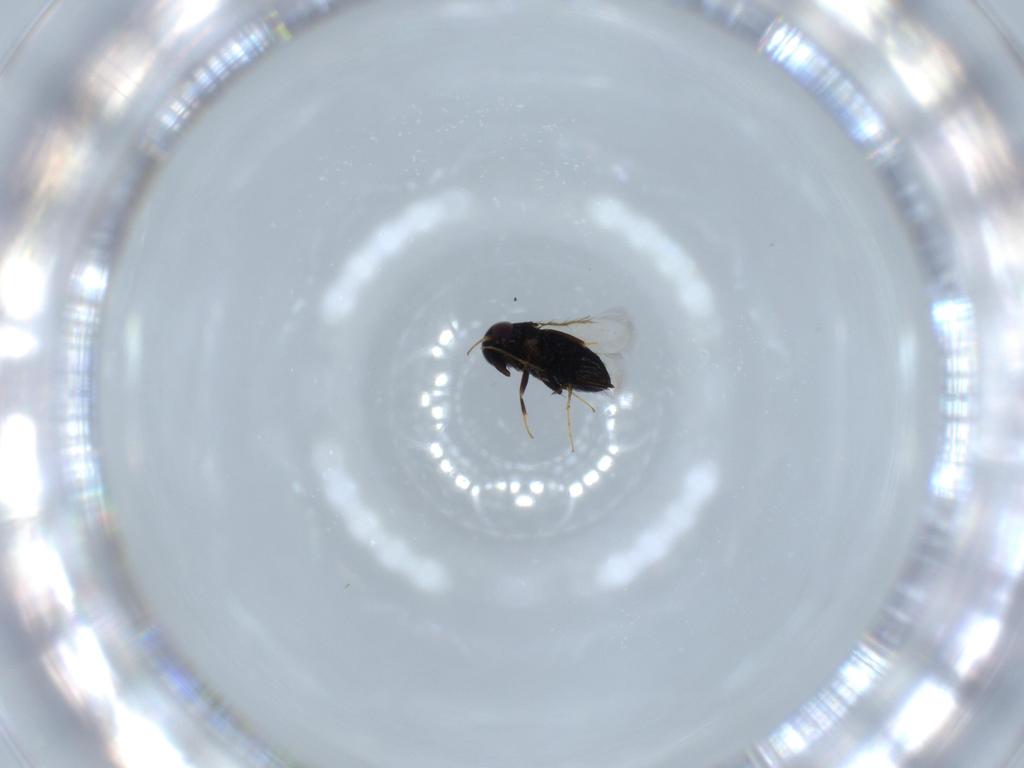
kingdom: Animalia
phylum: Arthropoda
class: Insecta
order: Hymenoptera
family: Signiphoridae
